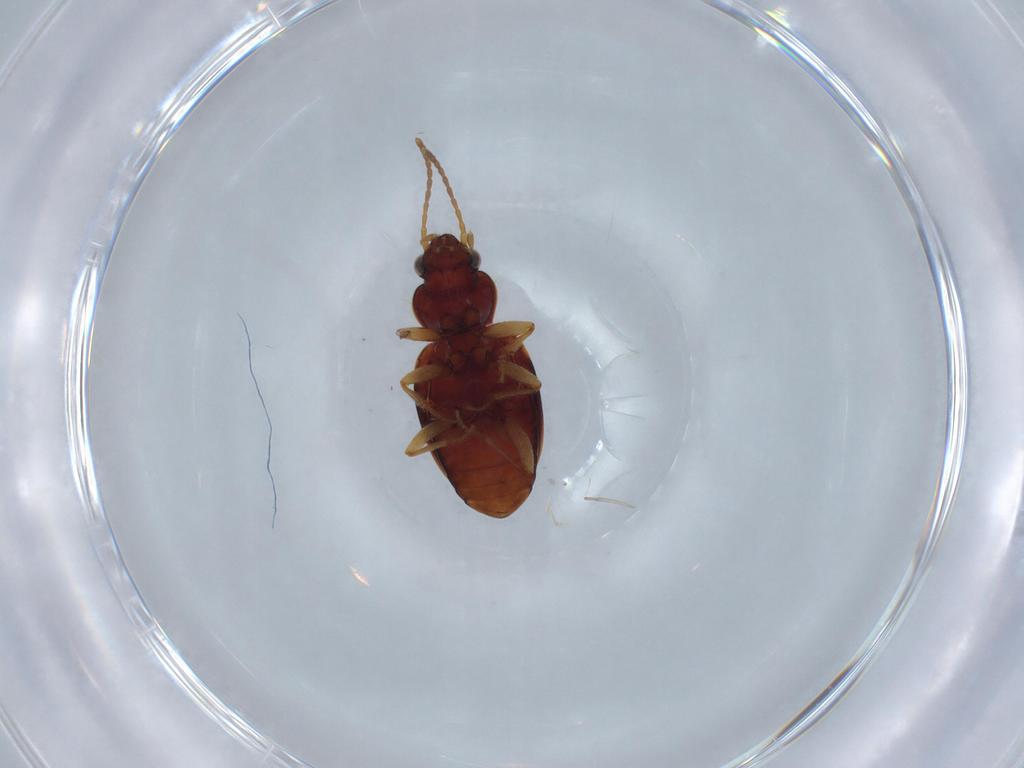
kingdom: Animalia
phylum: Arthropoda
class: Insecta
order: Coleoptera
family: Carabidae
